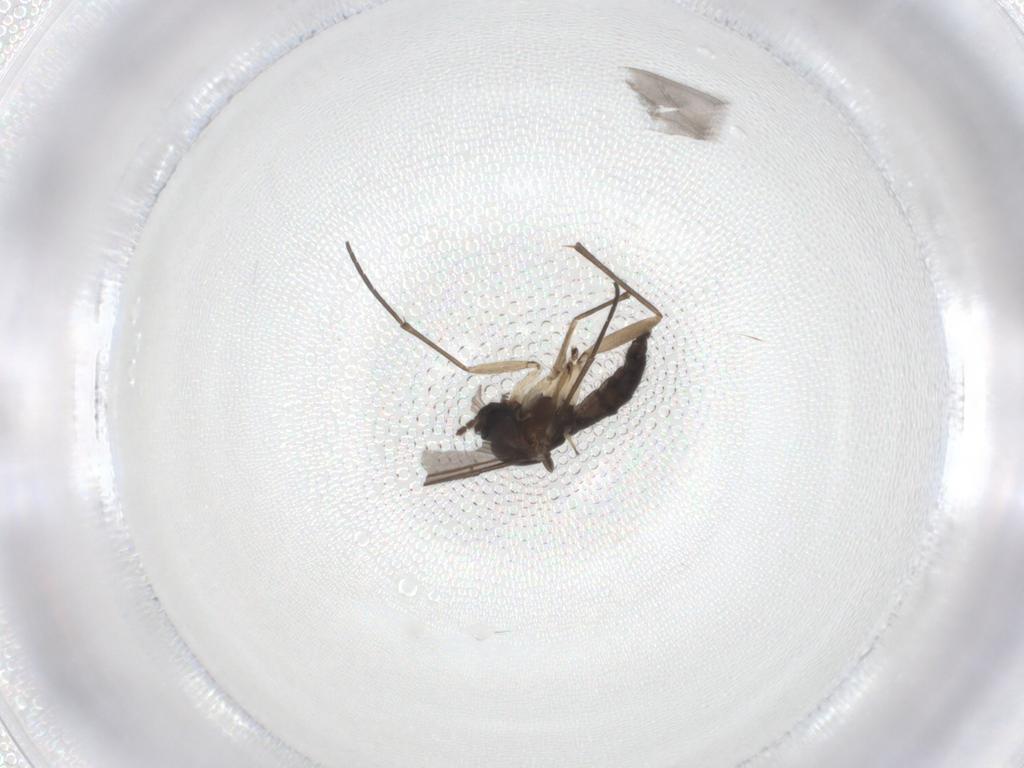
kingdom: Animalia
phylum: Arthropoda
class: Insecta
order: Diptera
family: Sciaridae
